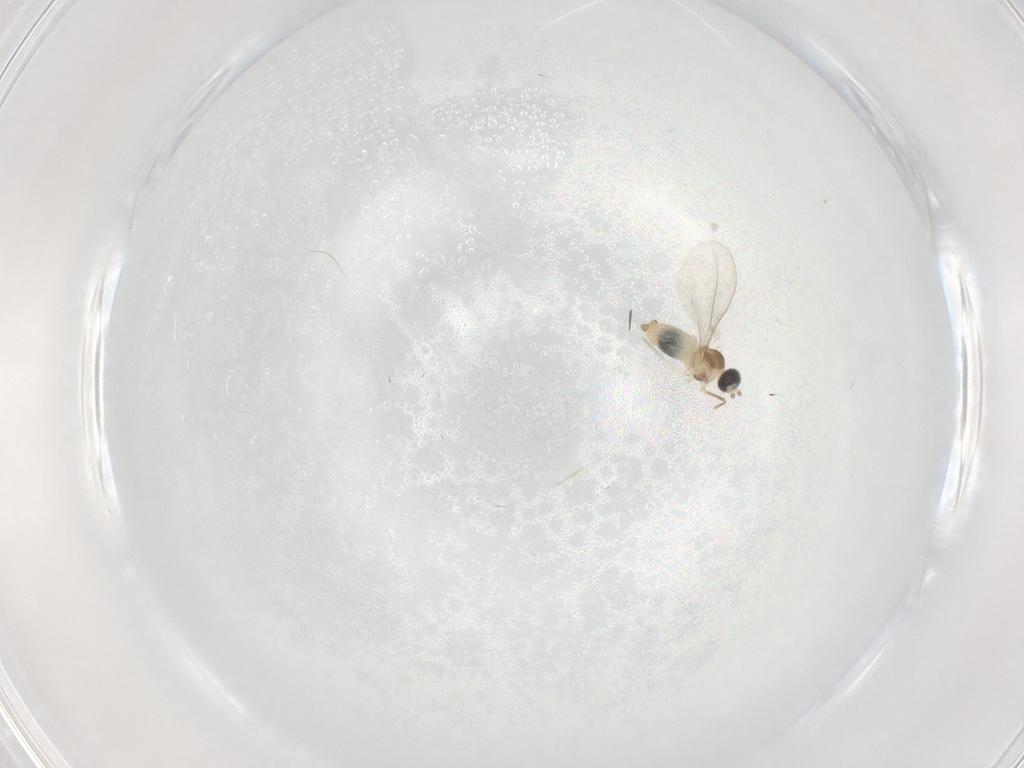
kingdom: Animalia
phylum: Arthropoda
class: Insecta
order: Diptera
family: Cecidomyiidae
